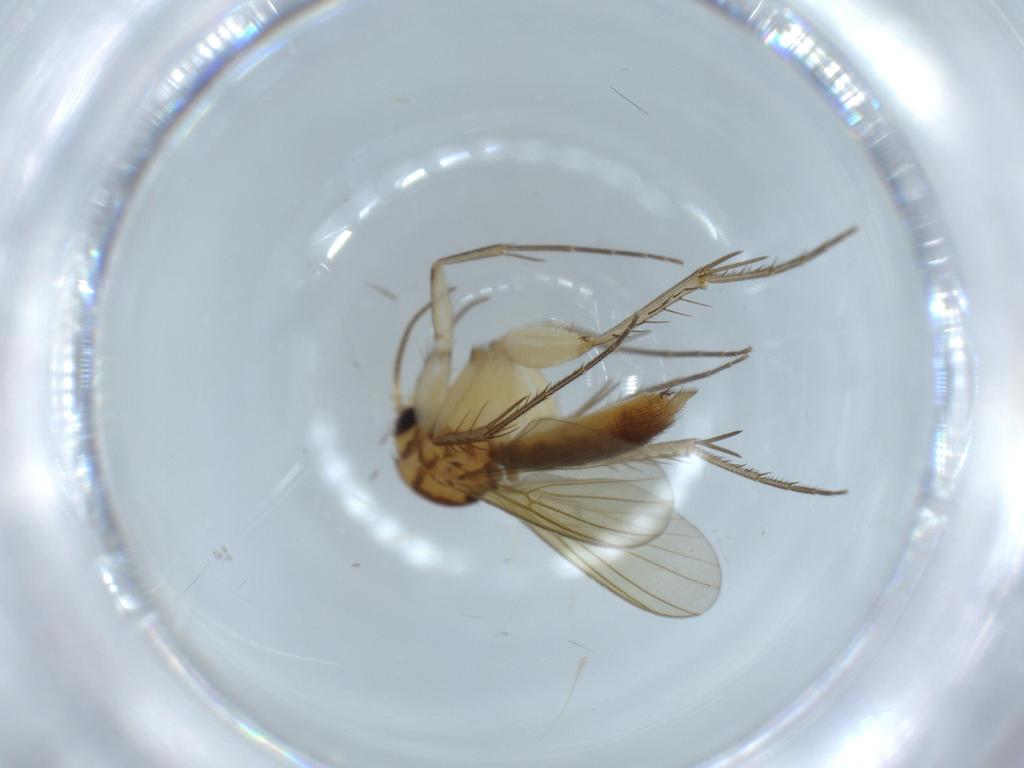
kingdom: Animalia
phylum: Arthropoda
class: Insecta
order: Diptera
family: Mycetophilidae
